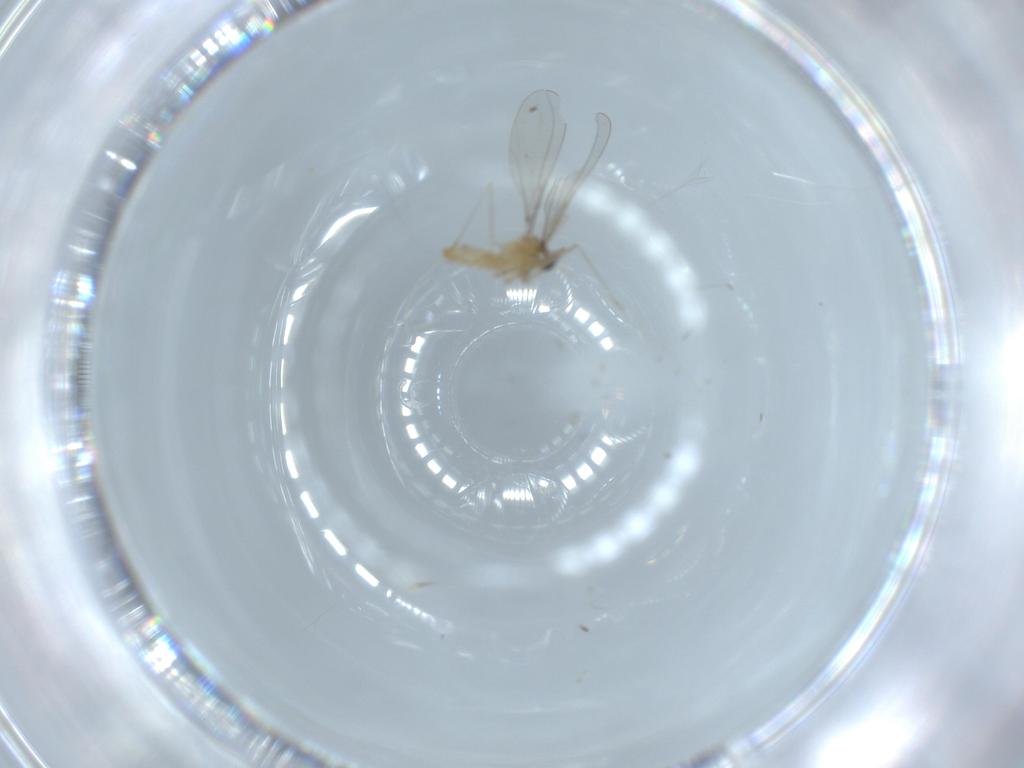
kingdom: Animalia
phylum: Arthropoda
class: Insecta
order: Diptera
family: Cecidomyiidae
